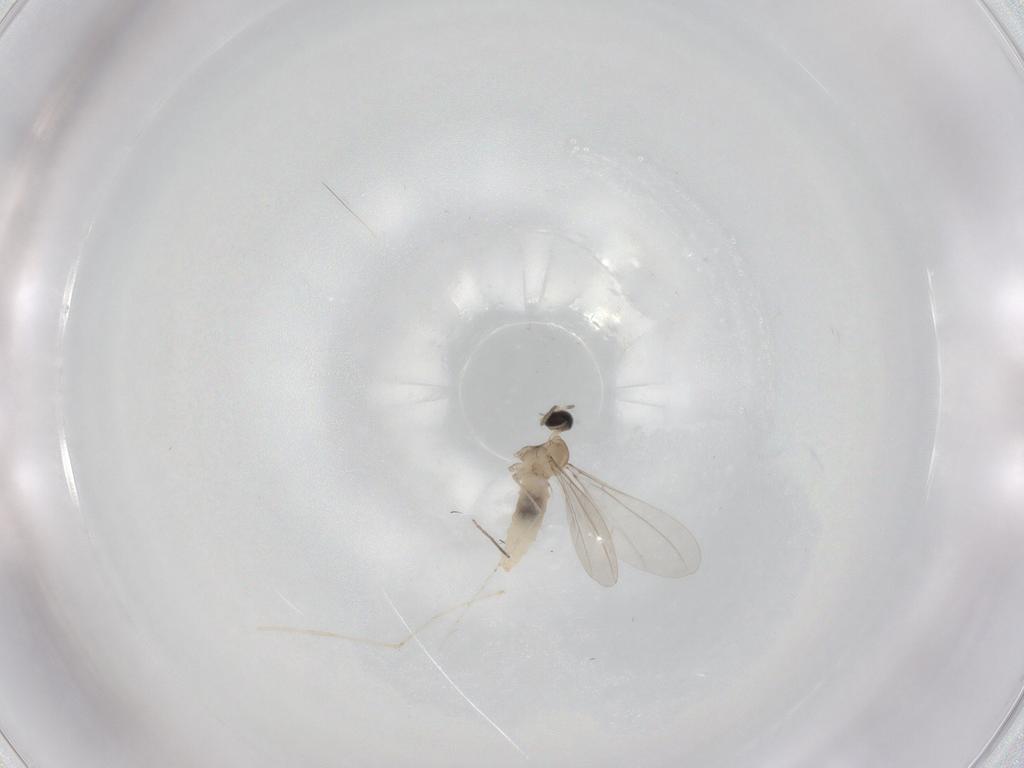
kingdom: Animalia
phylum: Arthropoda
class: Insecta
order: Diptera
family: Cecidomyiidae
